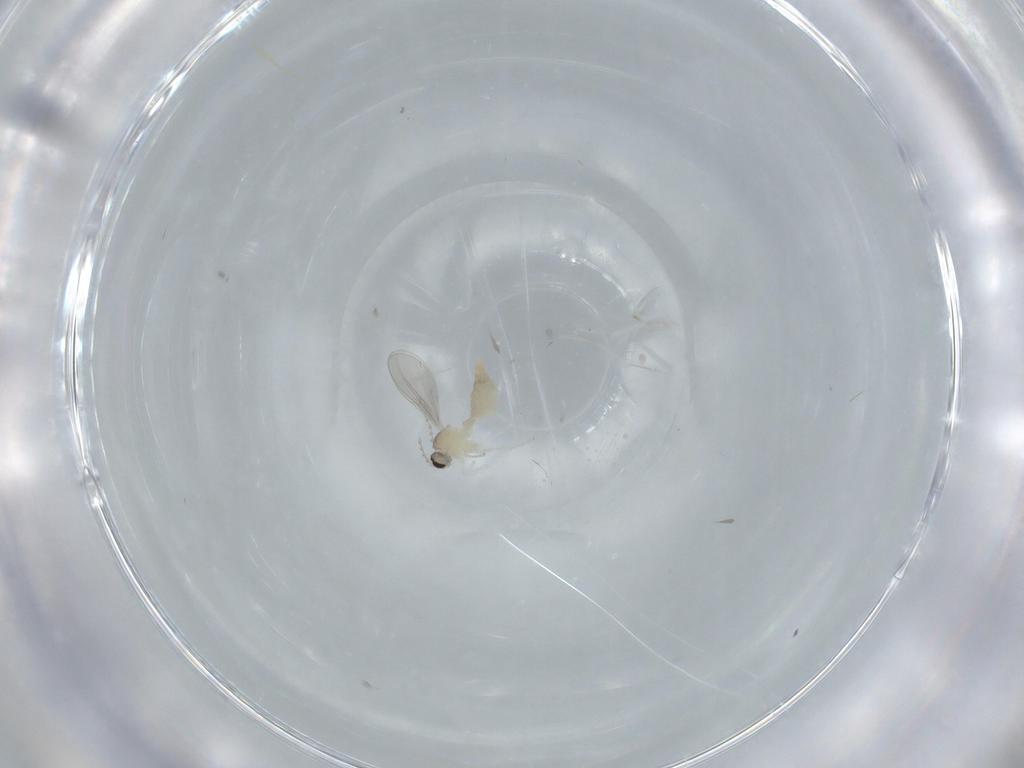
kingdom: Animalia
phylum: Arthropoda
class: Insecta
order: Diptera
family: Cecidomyiidae
